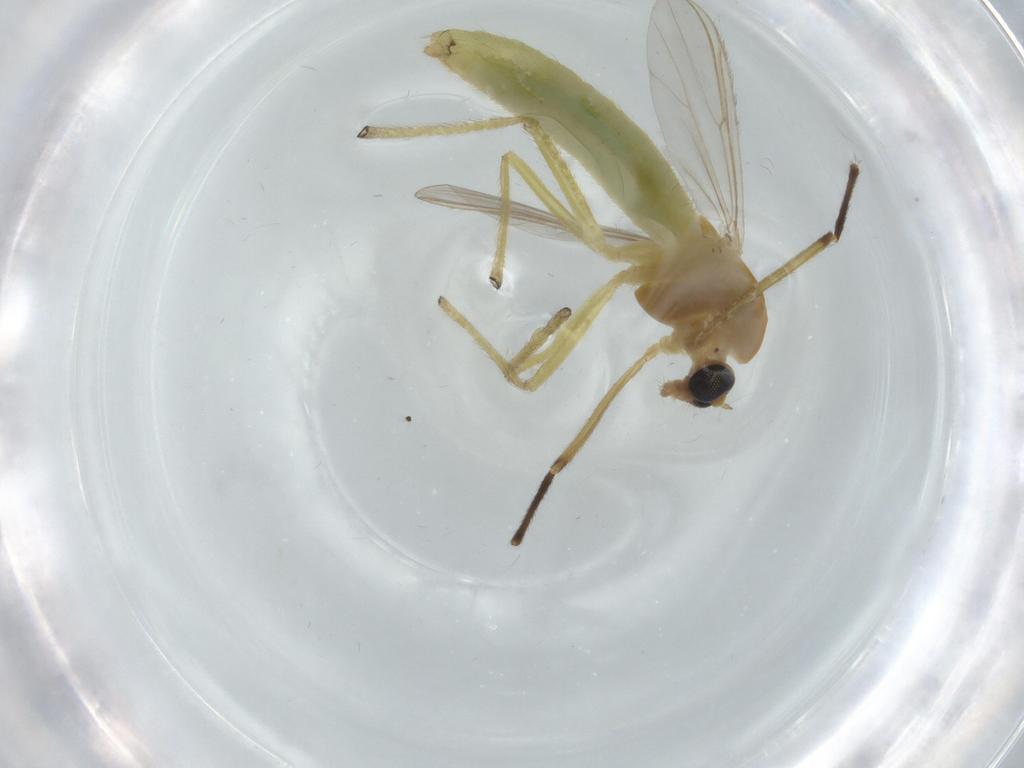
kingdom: Animalia
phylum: Arthropoda
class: Insecta
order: Diptera
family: Chironomidae
